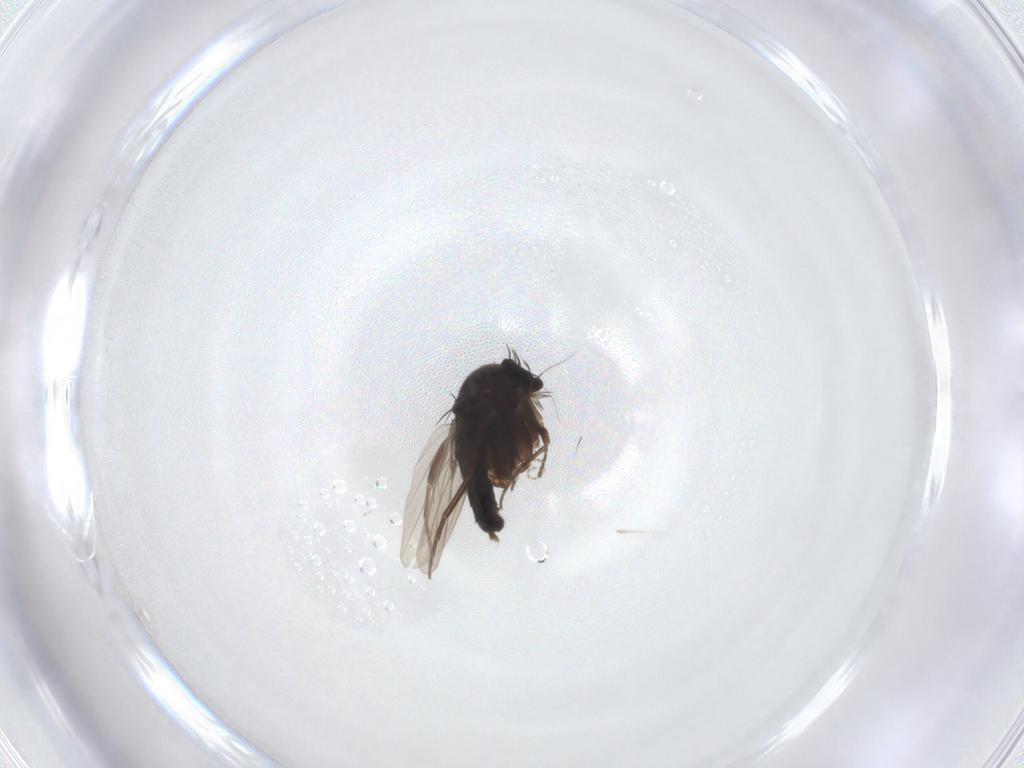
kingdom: Animalia
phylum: Arthropoda
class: Insecta
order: Diptera
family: Cecidomyiidae
